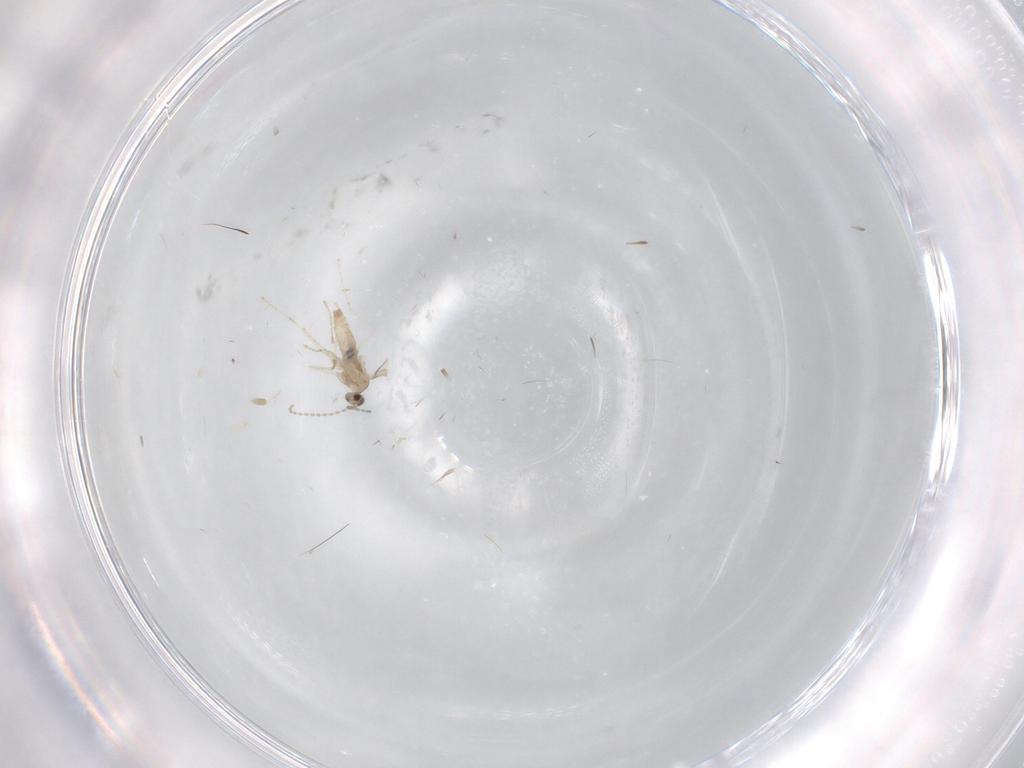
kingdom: Animalia
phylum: Arthropoda
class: Insecta
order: Diptera
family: Cecidomyiidae
